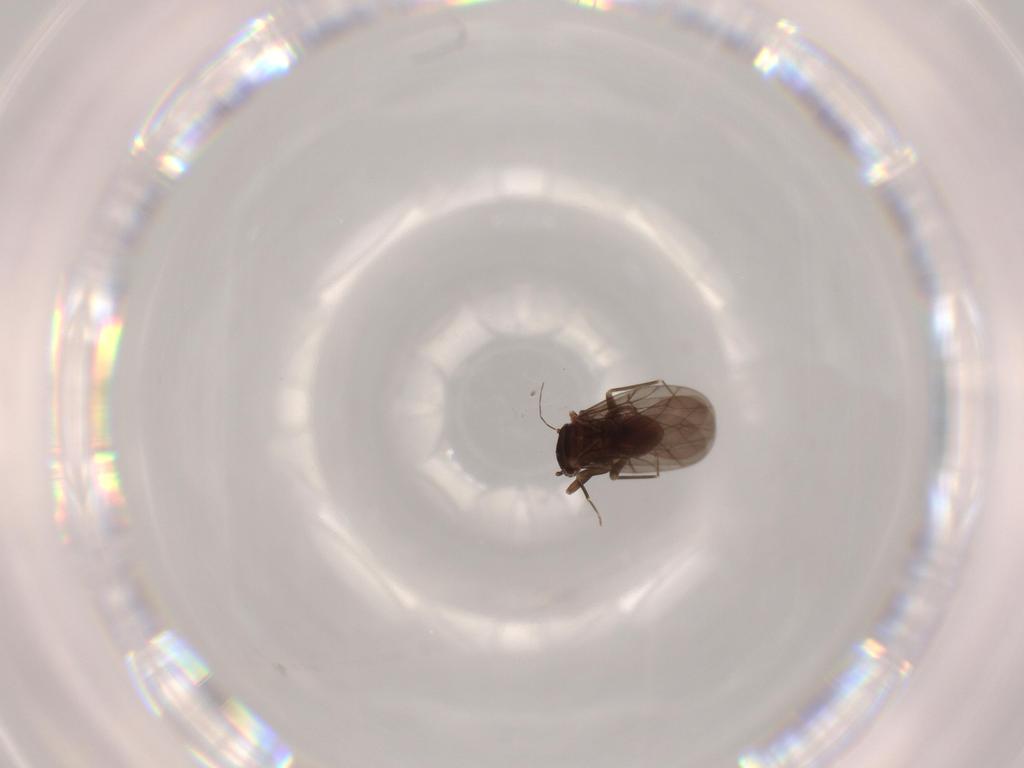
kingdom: Animalia
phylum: Arthropoda
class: Insecta
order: Psocodea
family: Lepidopsocidae
